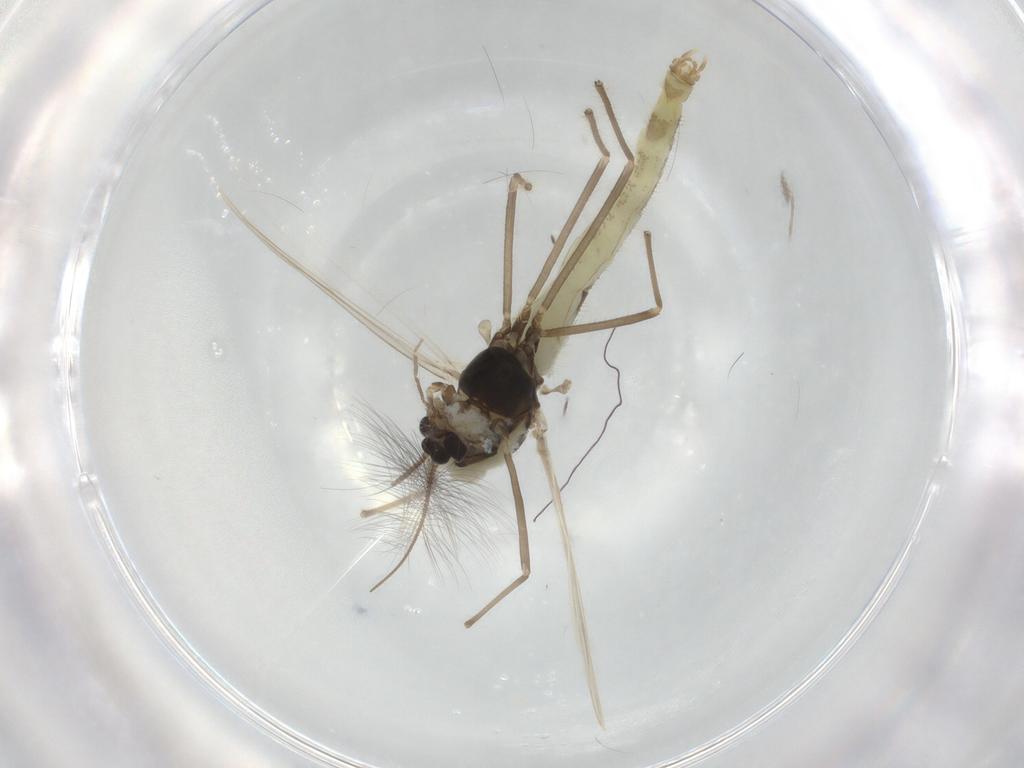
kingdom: Animalia
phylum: Arthropoda
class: Insecta
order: Diptera
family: Chironomidae
